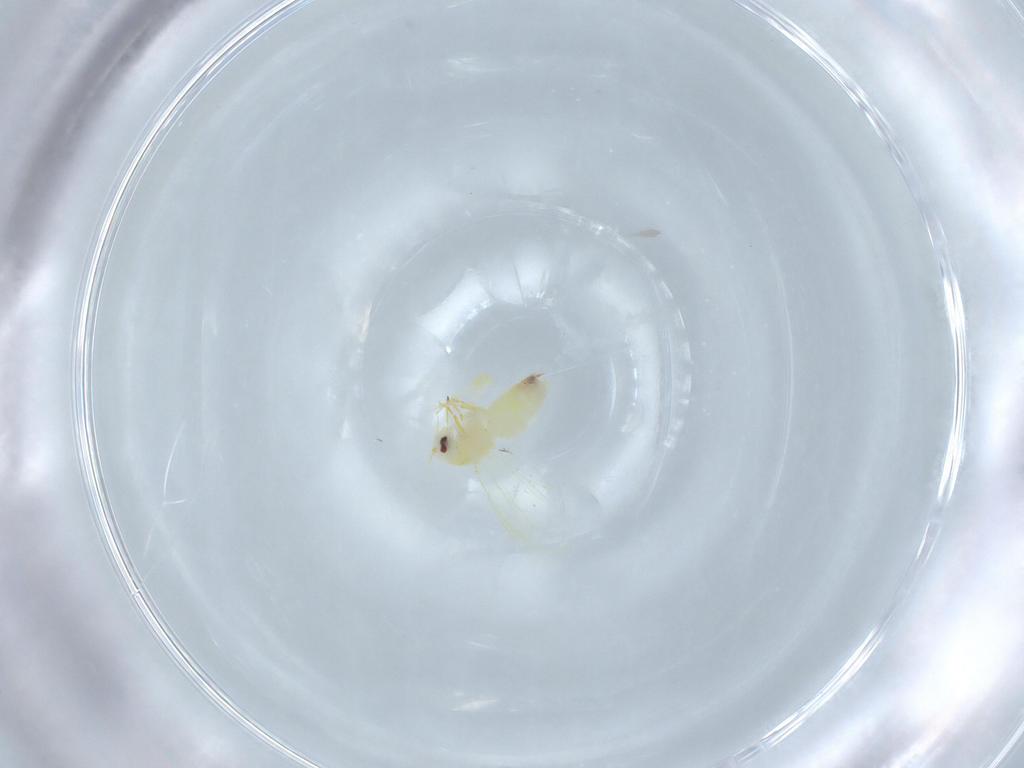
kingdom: Animalia
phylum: Arthropoda
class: Insecta
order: Hemiptera
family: Aleyrodidae
